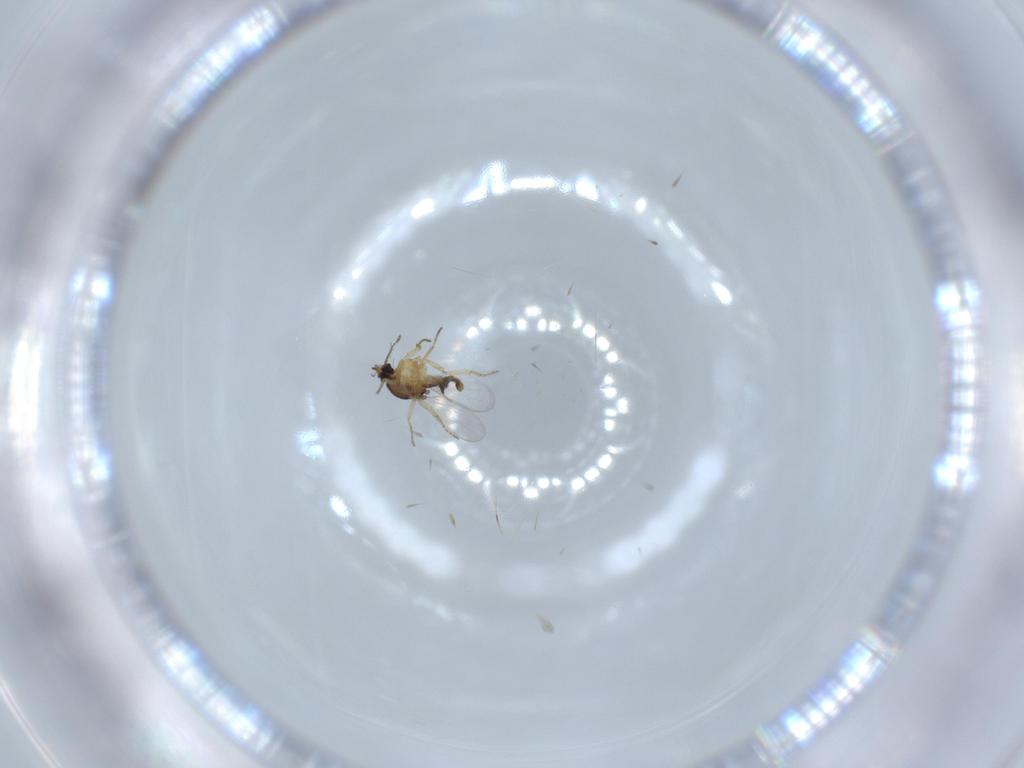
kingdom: Animalia
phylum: Arthropoda
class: Insecta
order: Diptera
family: Ceratopogonidae
